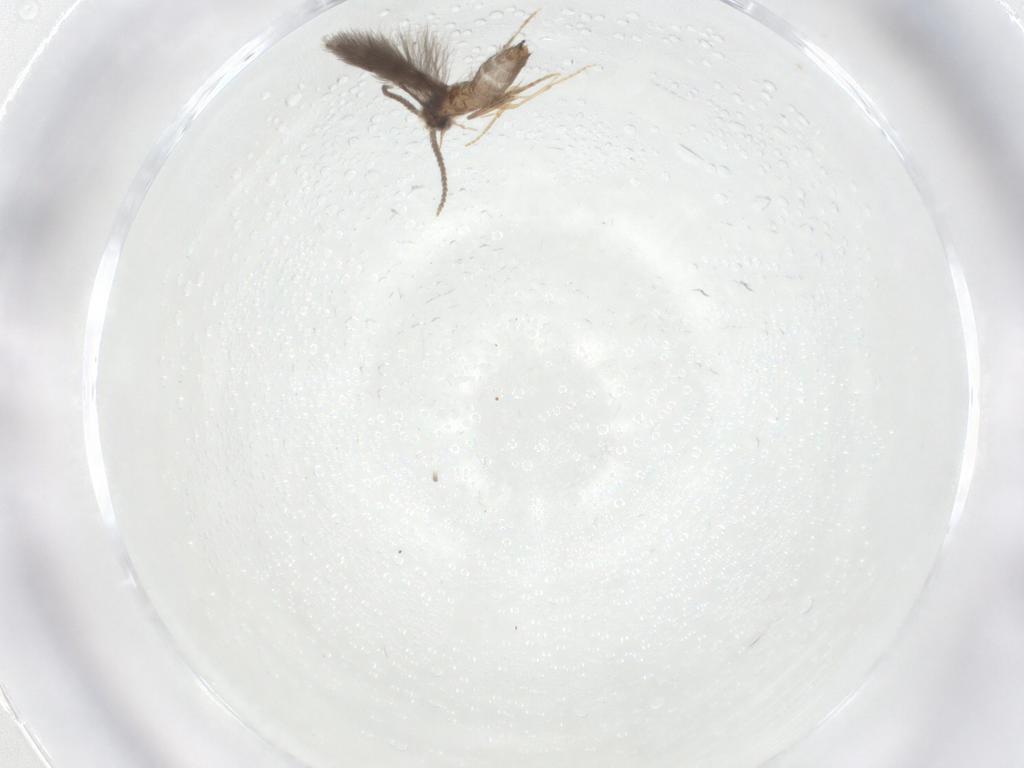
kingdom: Animalia
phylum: Arthropoda
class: Insecta
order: Trichoptera
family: Hydroptilidae
